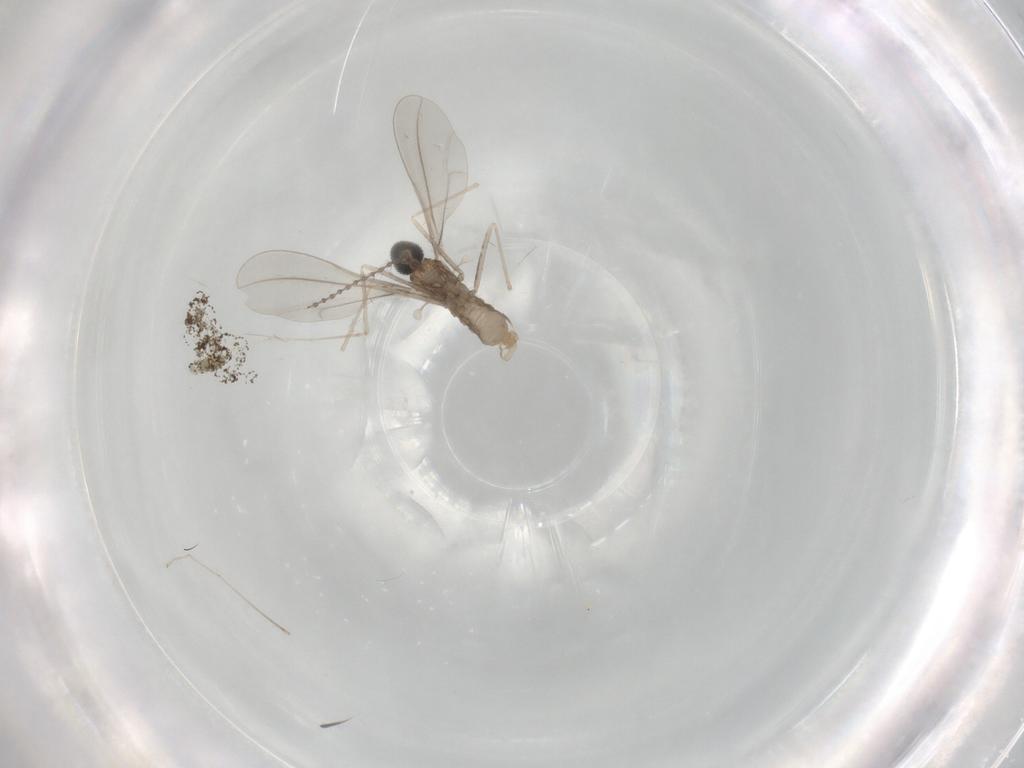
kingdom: Animalia
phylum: Arthropoda
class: Insecta
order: Diptera
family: Cecidomyiidae
